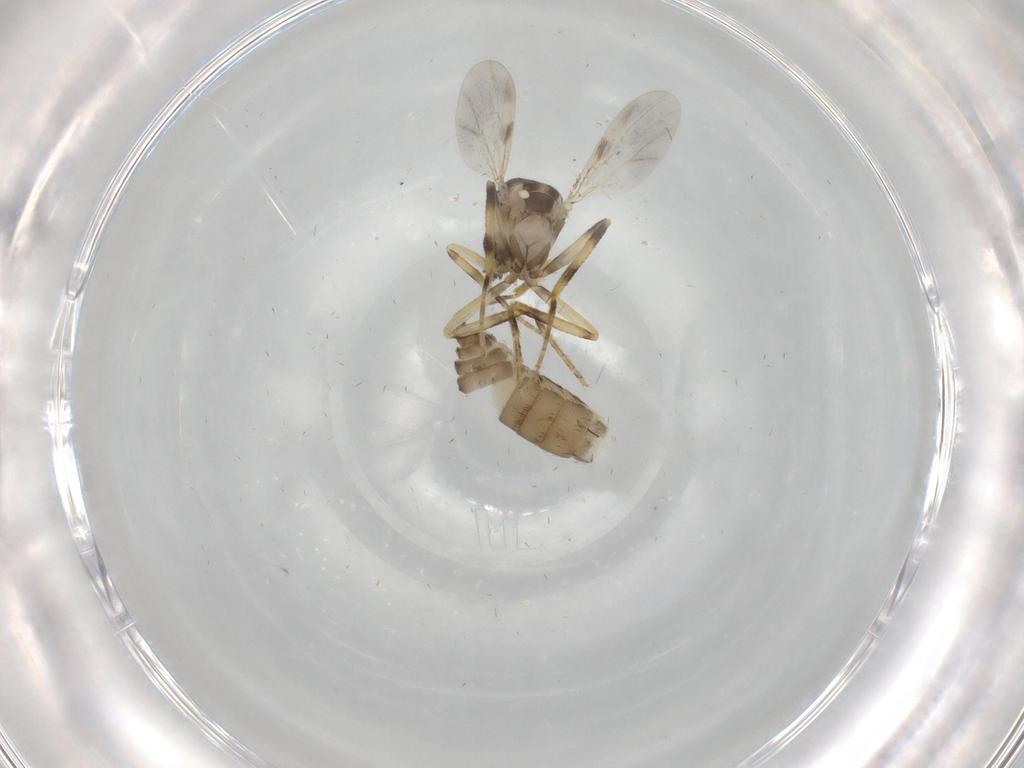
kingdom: Animalia
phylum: Arthropoda
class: Insecta
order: Diptera
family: Ceratopogonidae
